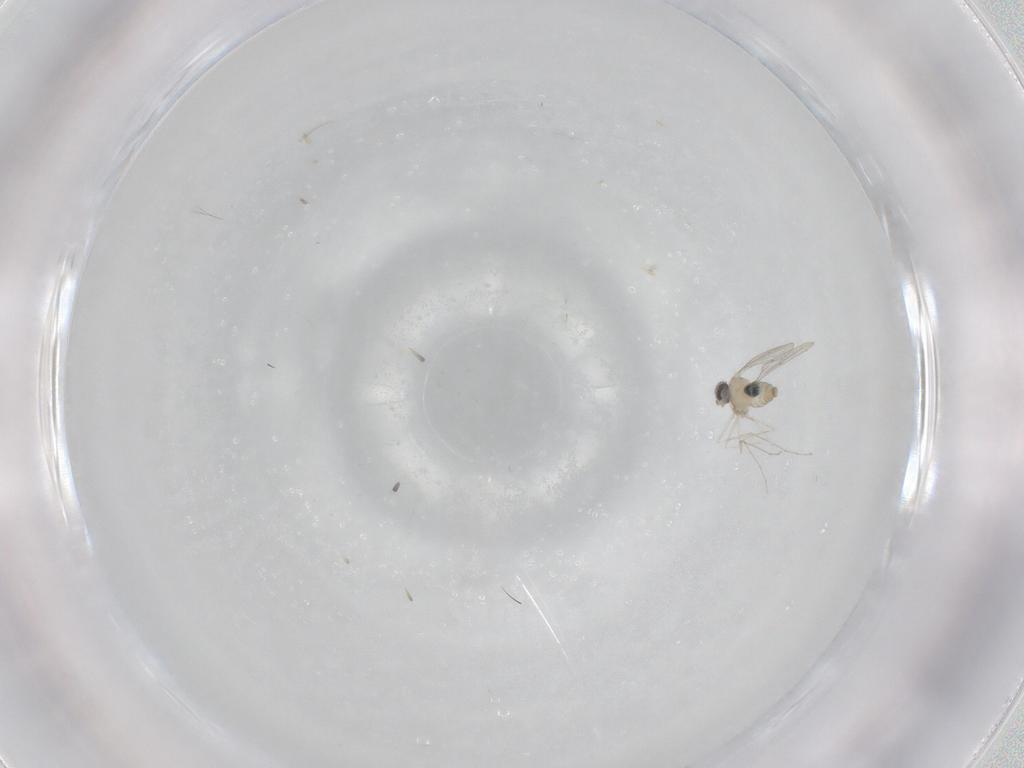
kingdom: Animalia
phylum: Arthropoda
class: Insecta
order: Diptera
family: Cecidomyiidae
